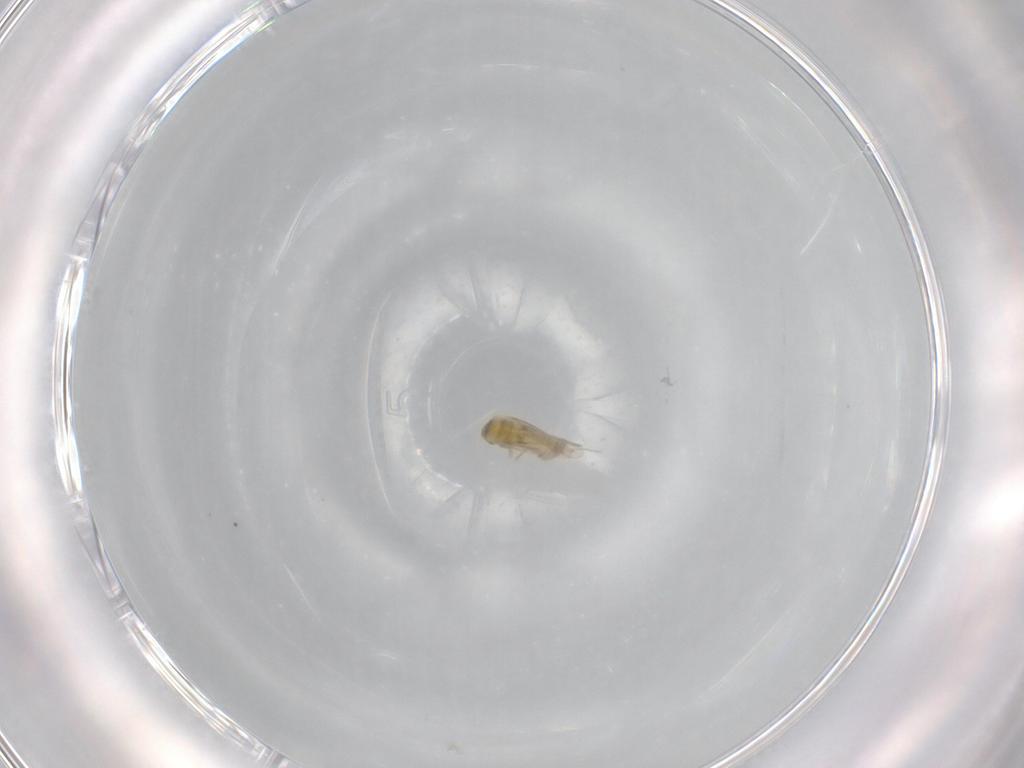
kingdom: Animalia
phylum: Arthropoda
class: Insecta
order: Hemiptera
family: Aleyrodidae
